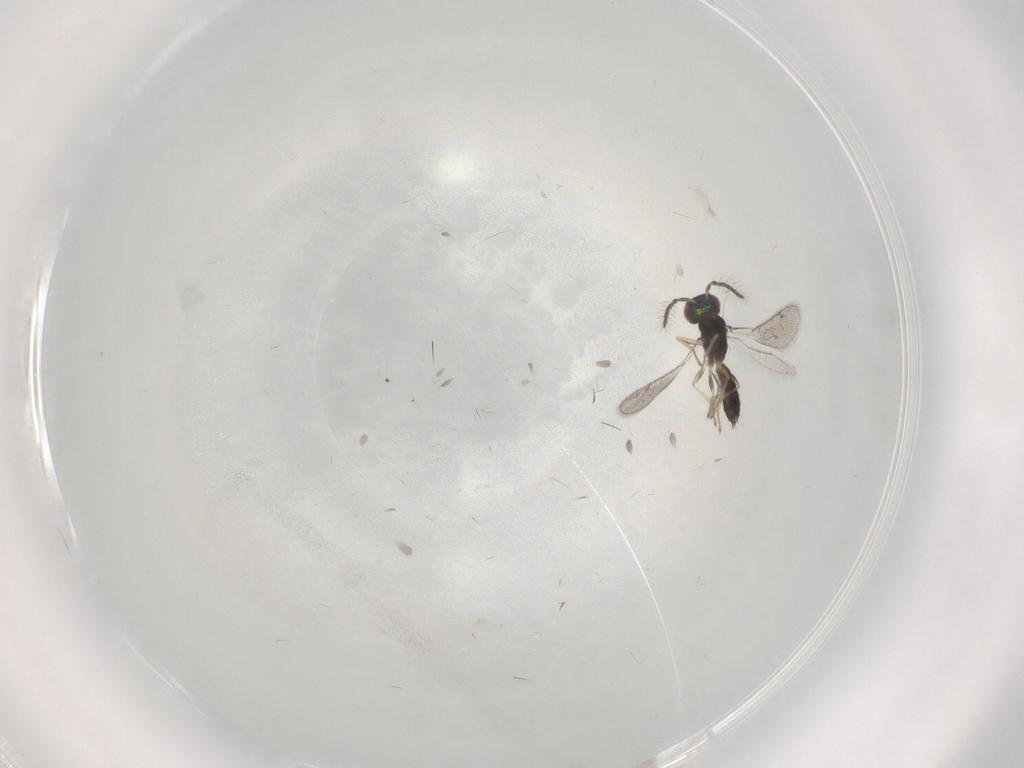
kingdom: Animalia
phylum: Arthropoda
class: Insecta
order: Hymenoptera
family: Eulophidae
